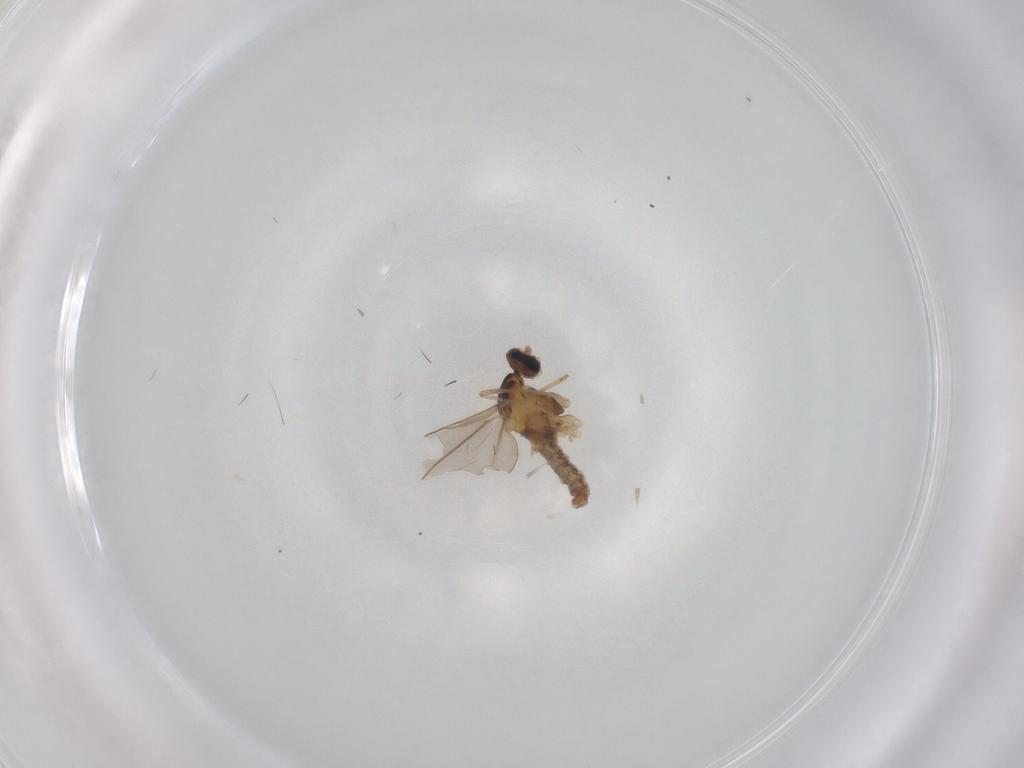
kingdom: Animalia
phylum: Arthropoda
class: Insecta
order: Diptera
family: Cecidomyiidae
